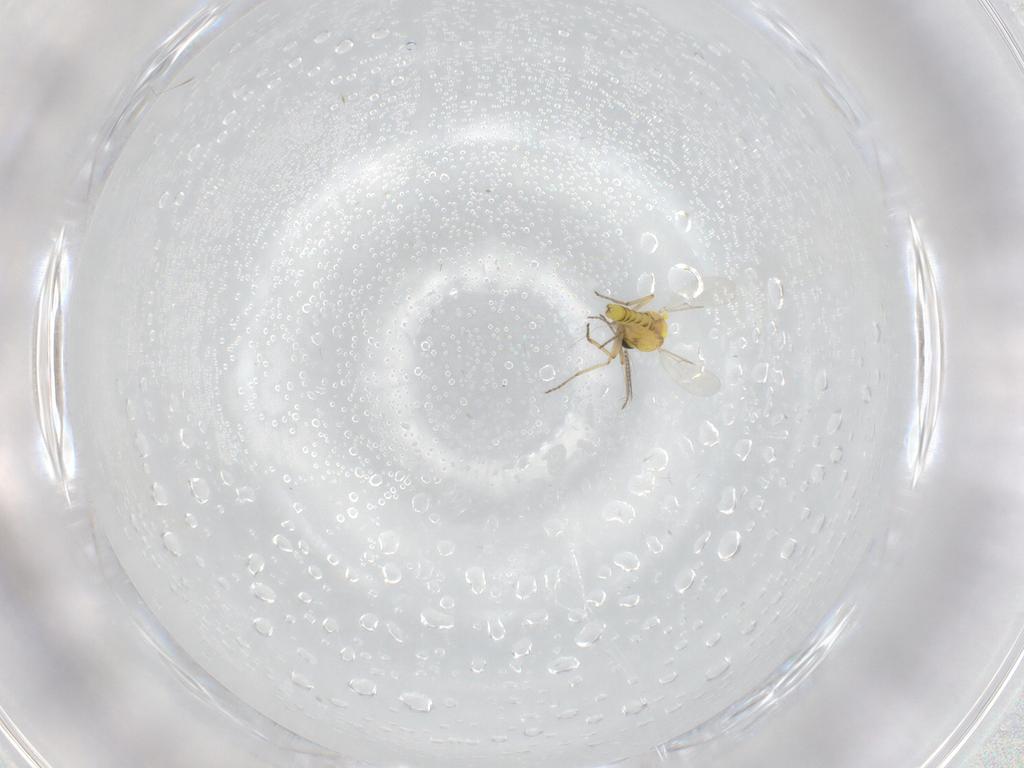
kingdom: Animalia
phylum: Arthropoda
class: Insecta
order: Diptera
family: Ceratopogonidae
